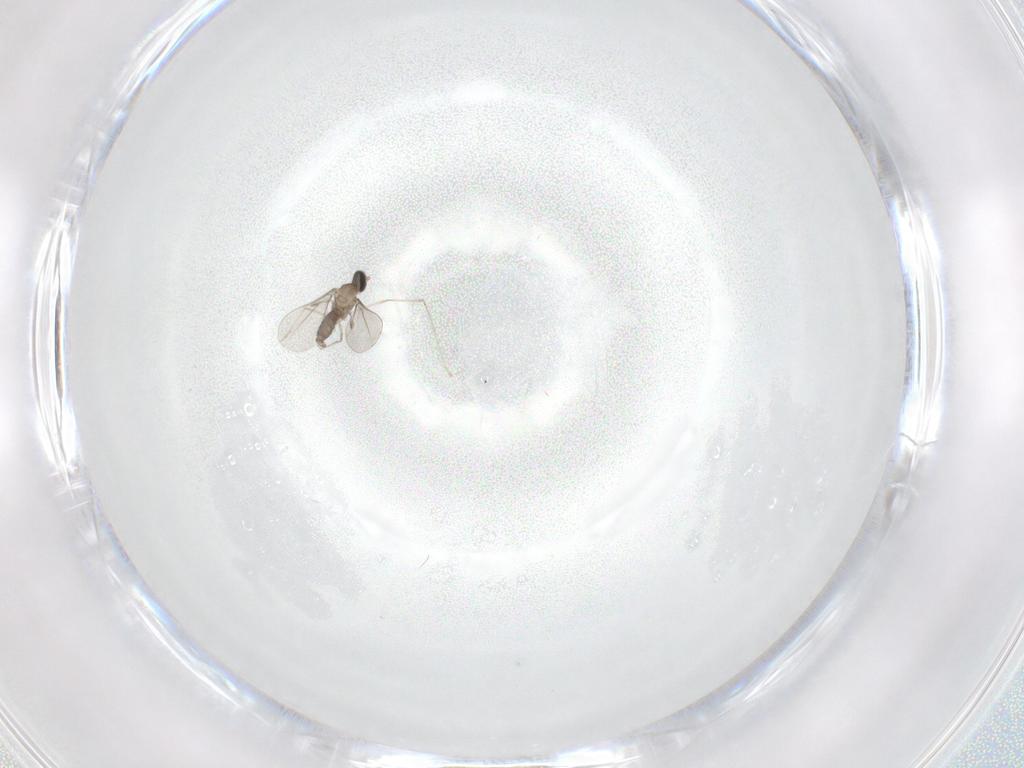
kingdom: Animalia
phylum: Arthropoda
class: Insecta
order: Diptera
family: Cecidomyiidae
